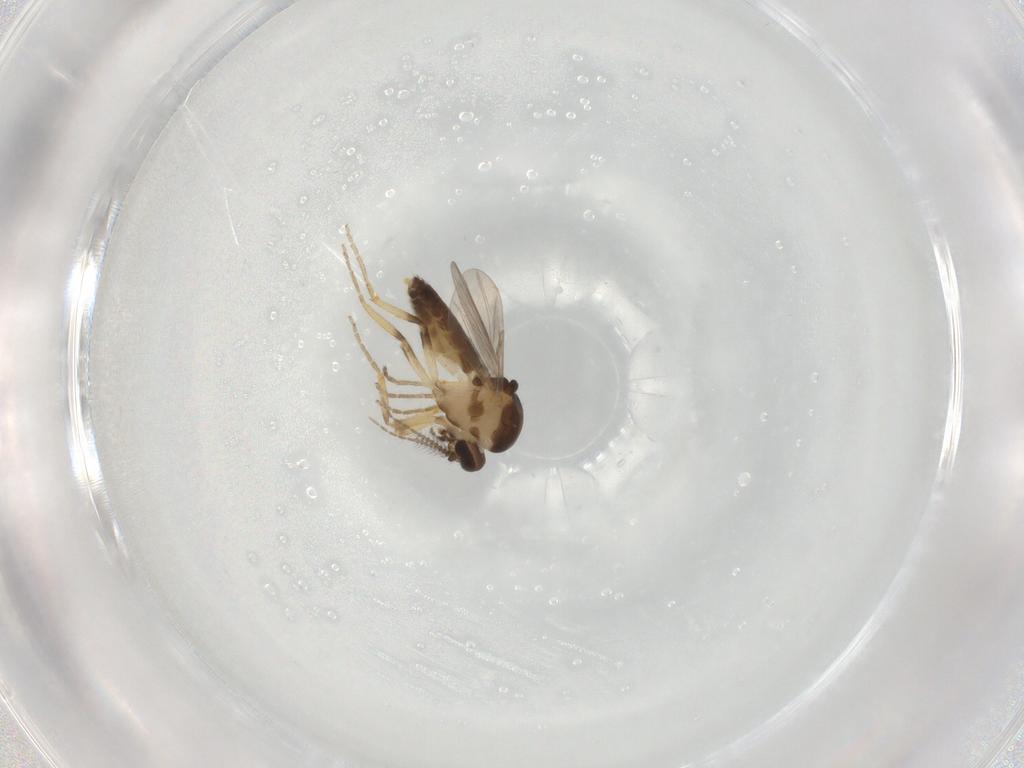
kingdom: Animalia
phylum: Arthropoda
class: Insecta
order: Diptera
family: Ceratopogonidae
